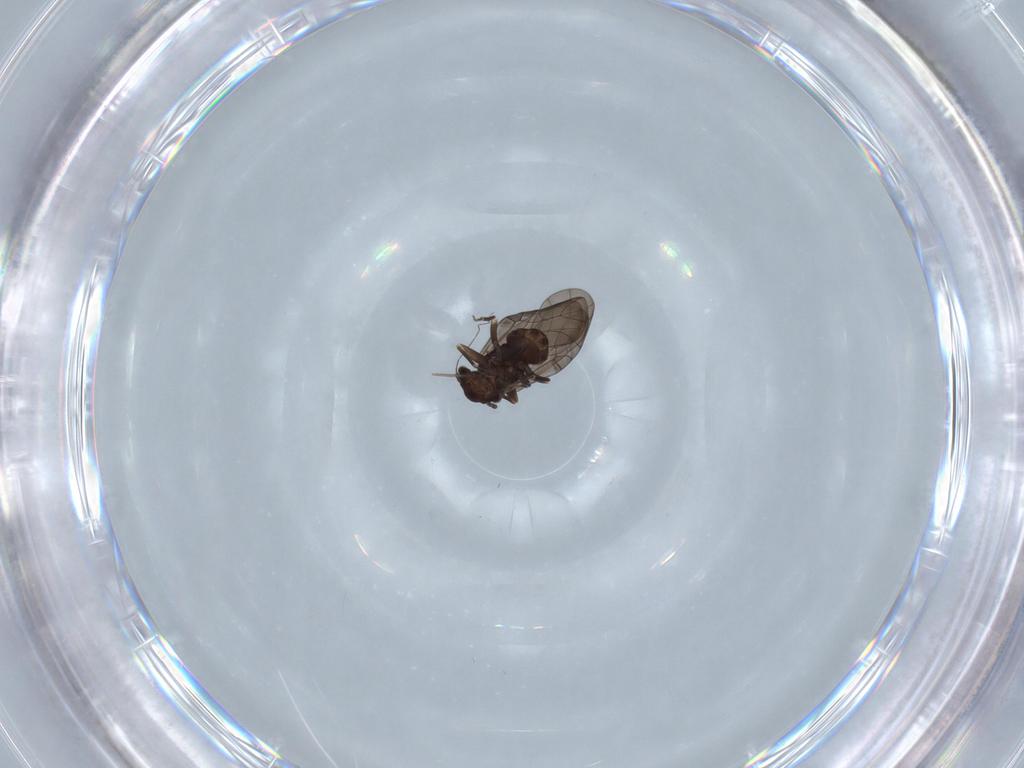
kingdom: Animalia
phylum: Arthropoda
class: Insecta
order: Psocodea
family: Lepidopsocidae
